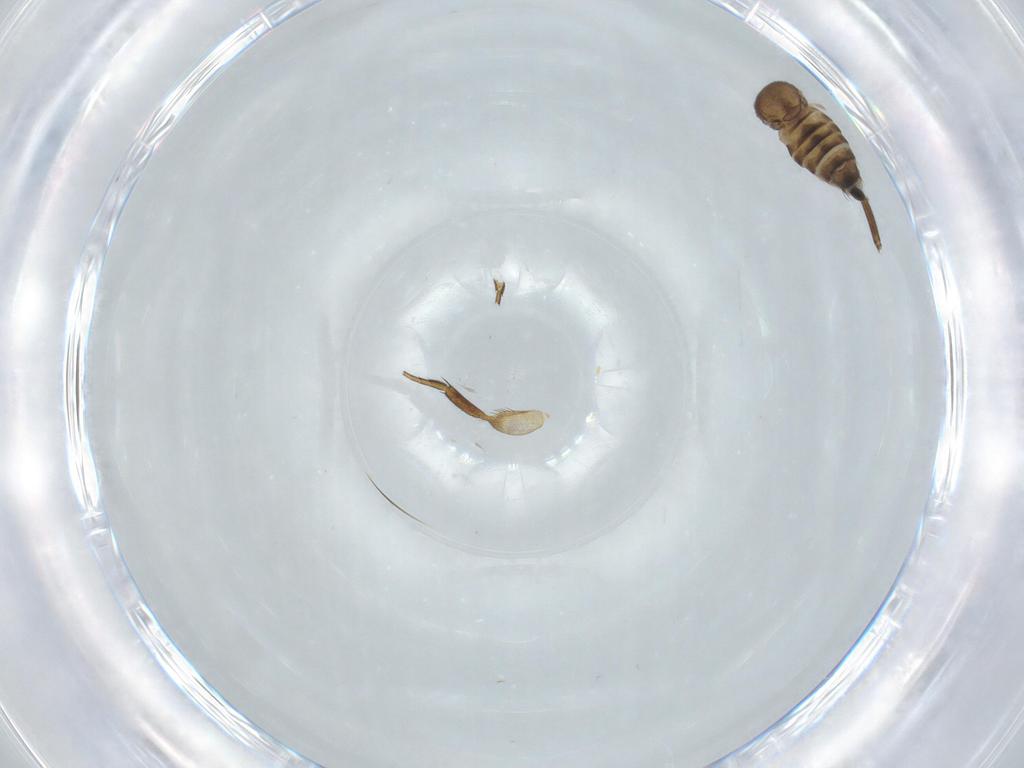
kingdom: Animalia
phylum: Arthropoda
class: Insecta
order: Diptera
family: Phoridae
